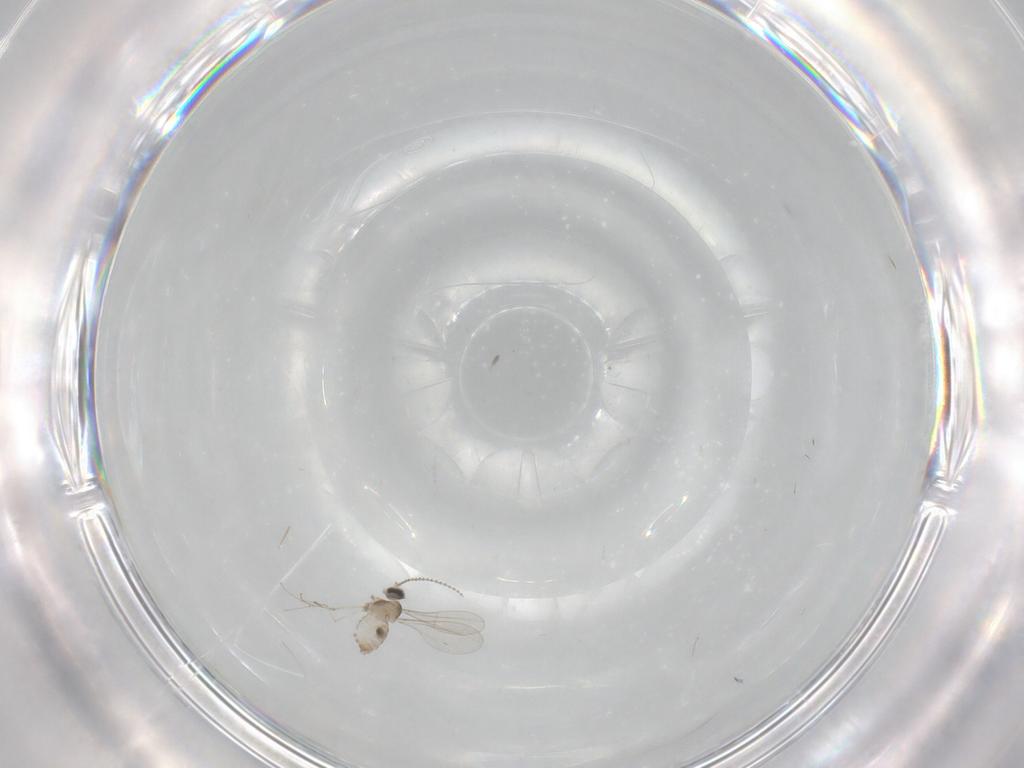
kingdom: Animalia
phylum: Arthropoda
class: Insecta
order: Diptera
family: Cecidomyiidae
